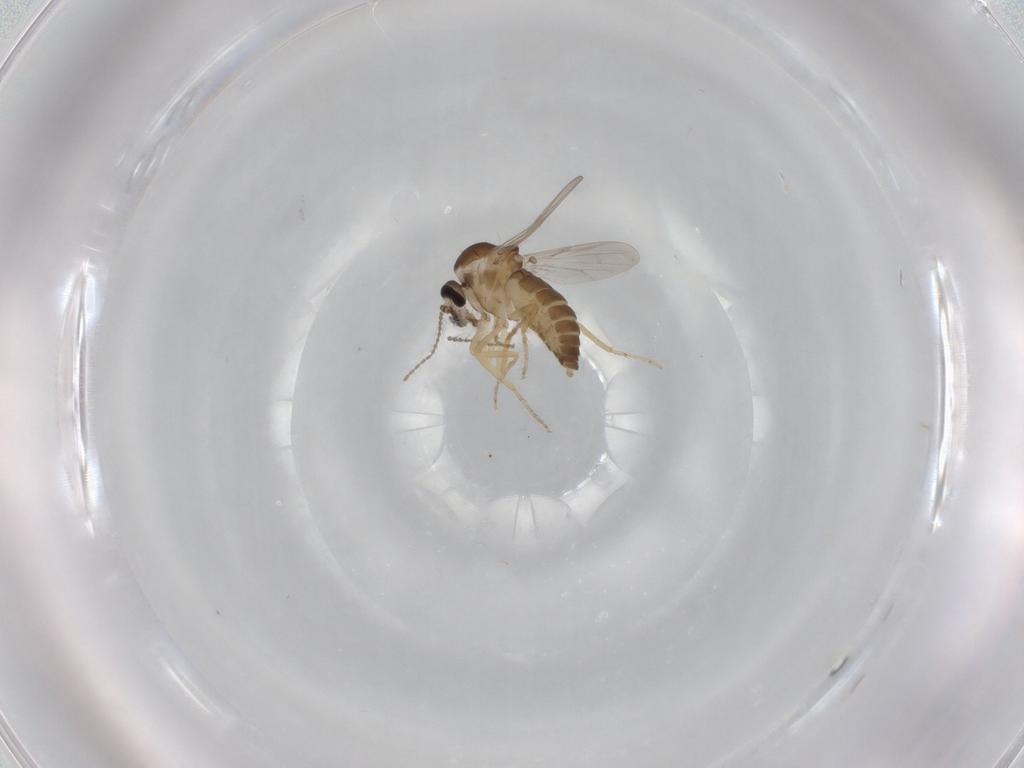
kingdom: Animalia
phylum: Arthropoda
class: Insecta
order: Diptera
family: Ceratopogonidae
